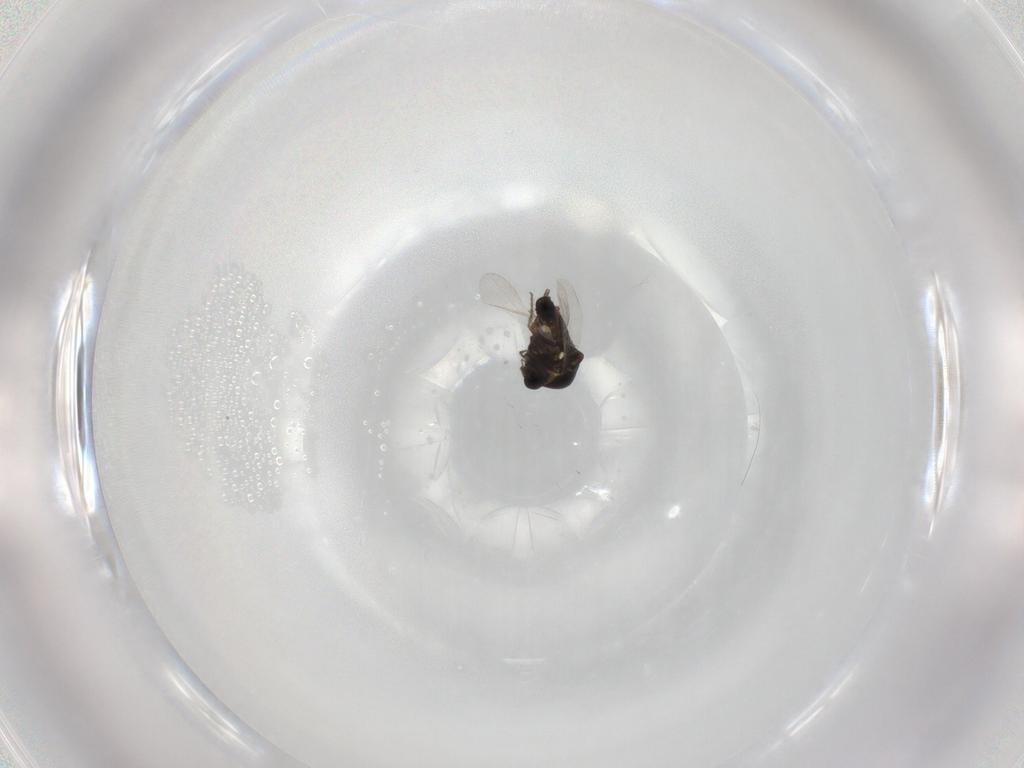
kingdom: Animalia
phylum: Arthropoda
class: Insecta
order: Diptera
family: Ceratopogonidae
